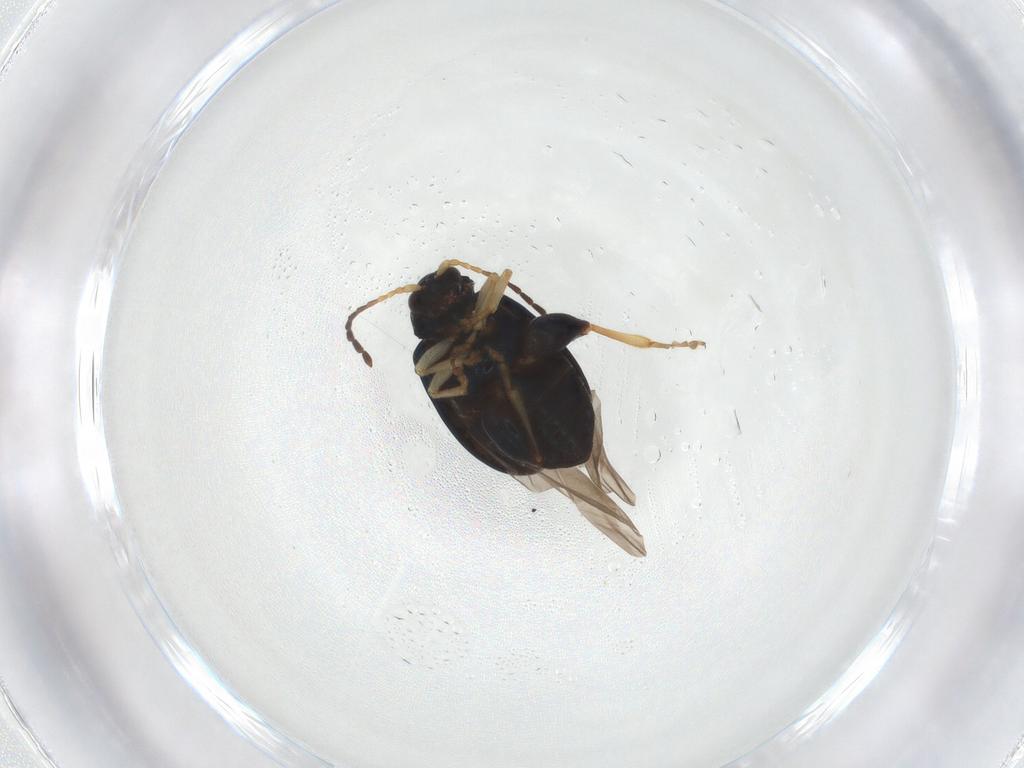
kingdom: Animalia
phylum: Arthropoda
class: Insecta
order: Coleoptera
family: Chrysomelidae
